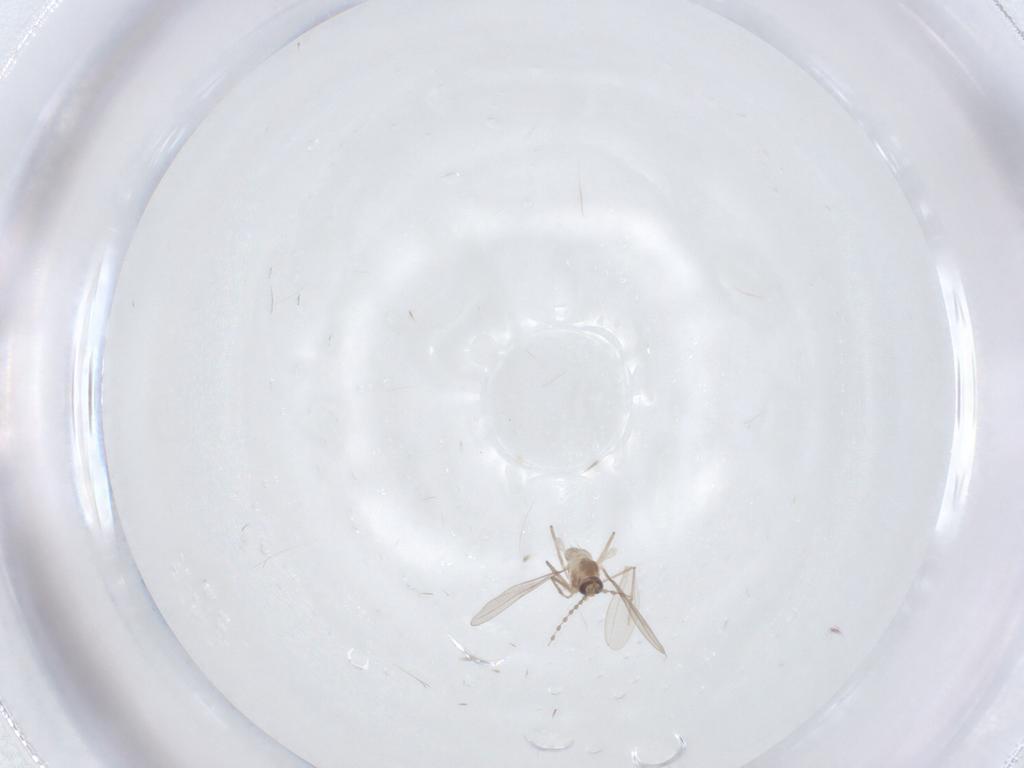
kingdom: Animalia
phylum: Arthropoda
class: Insecta
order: Diptera
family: Cecidomyiidae
